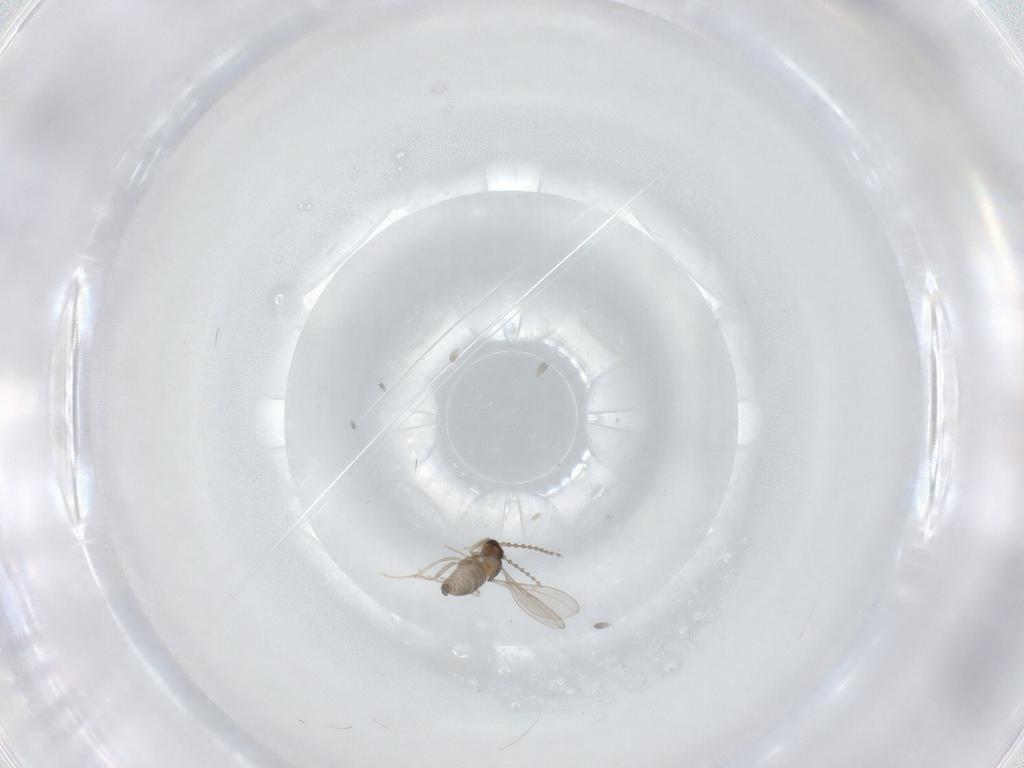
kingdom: Animalia
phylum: Arthropoda
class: Insecta
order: Diptera
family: Cecidomyiidae
